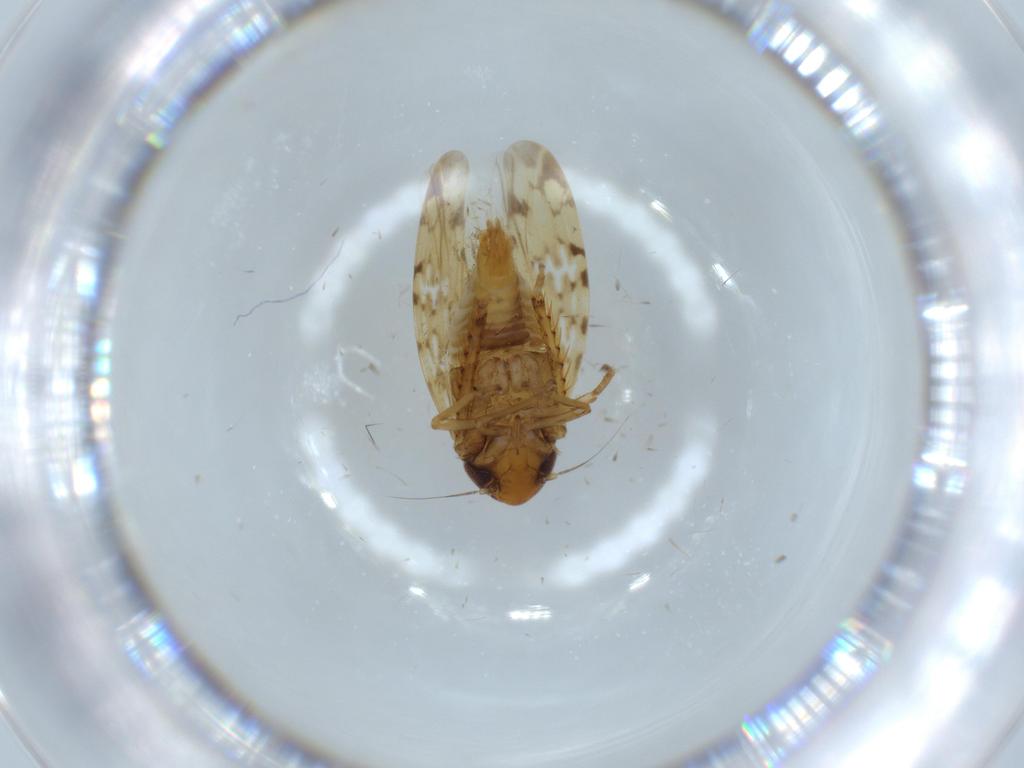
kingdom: Animalia
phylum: Arthropoda
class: Insecta
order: Hemiptera
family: Cicadellidae
